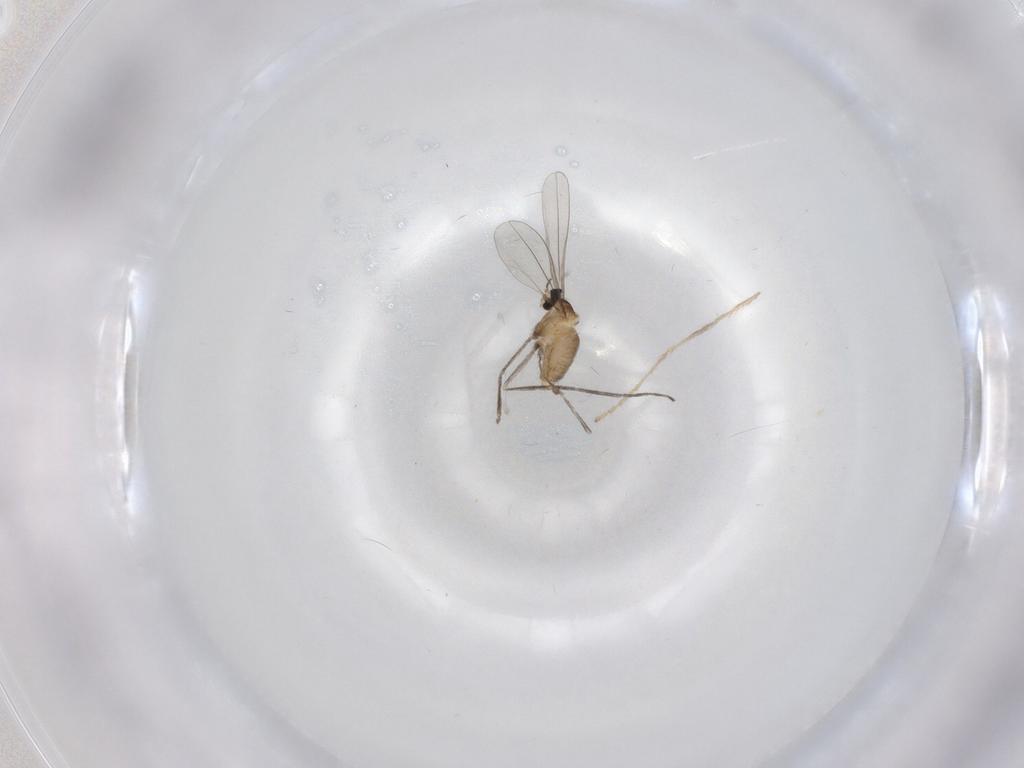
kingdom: Animalia
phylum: Arthropoda
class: Insecta
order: Diptera
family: Cecidomyiidae
